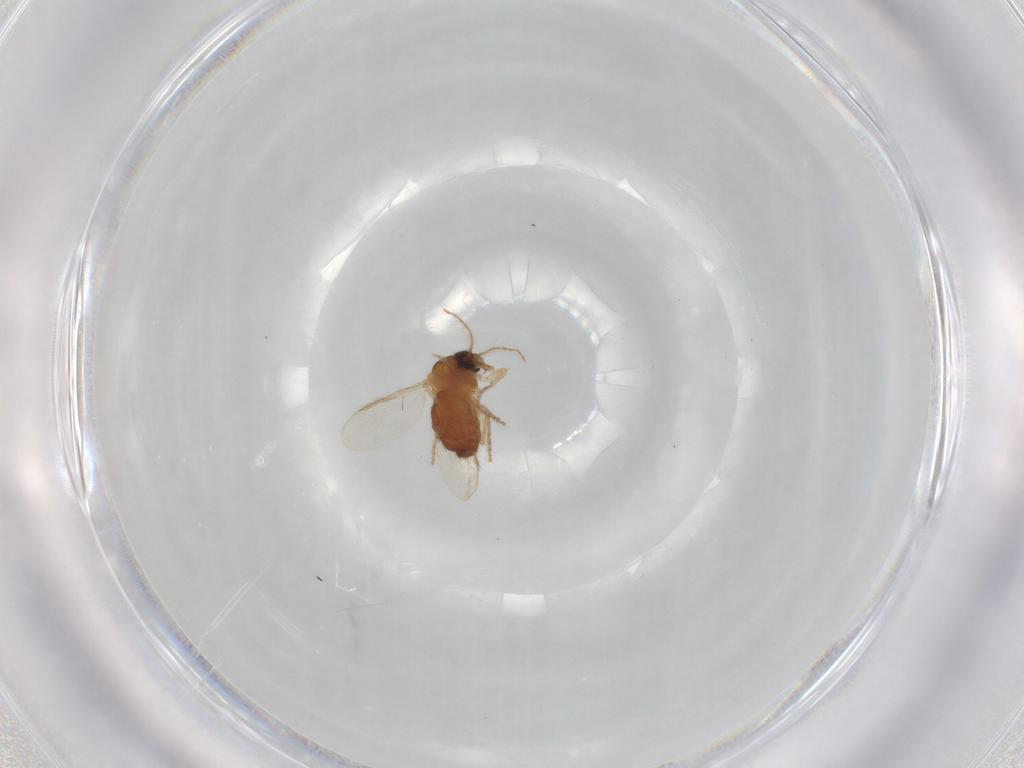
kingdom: Animalia
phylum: Arthropoda
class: Insecta
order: Diptera
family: Ceratopogonidae
